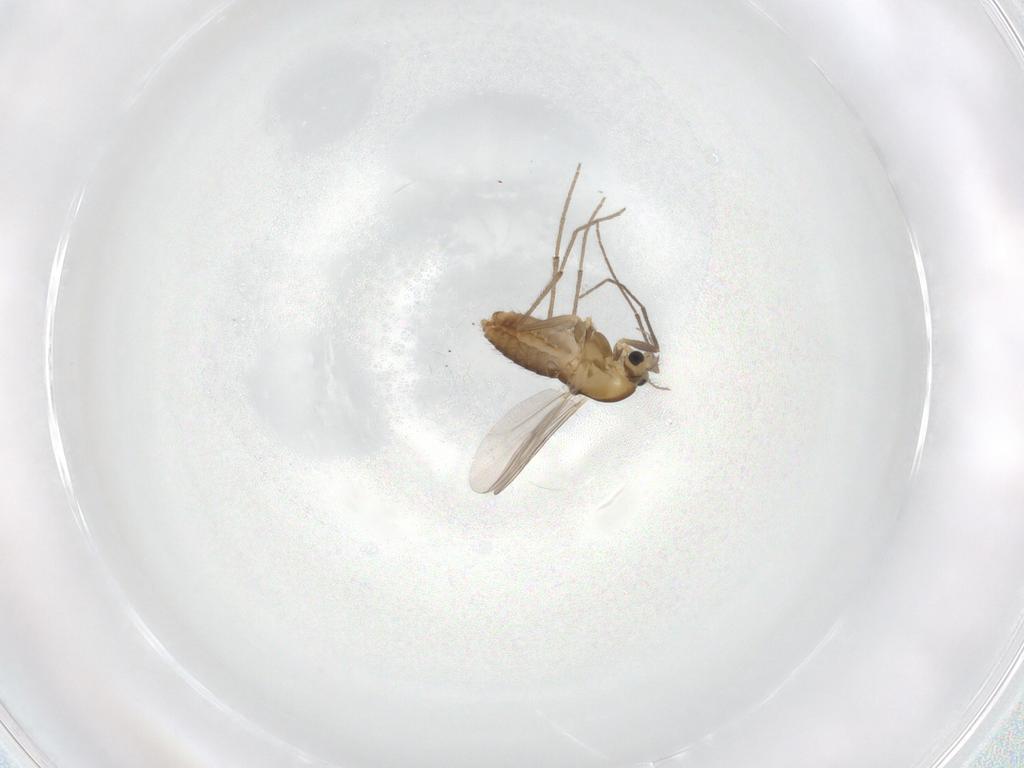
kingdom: Animalia
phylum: Arthropoda
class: Insecta
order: Diptera
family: Chironomidae
